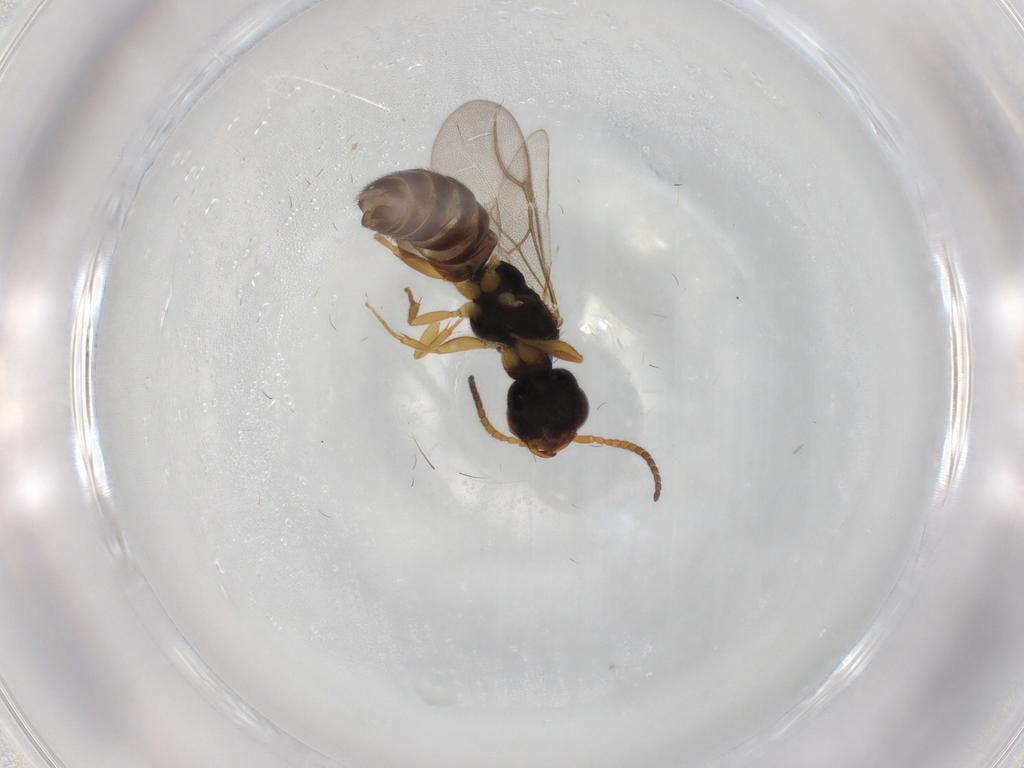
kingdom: Animalia
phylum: Arthropoda
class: Insecta
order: Hymenoptera
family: Bethylidae
